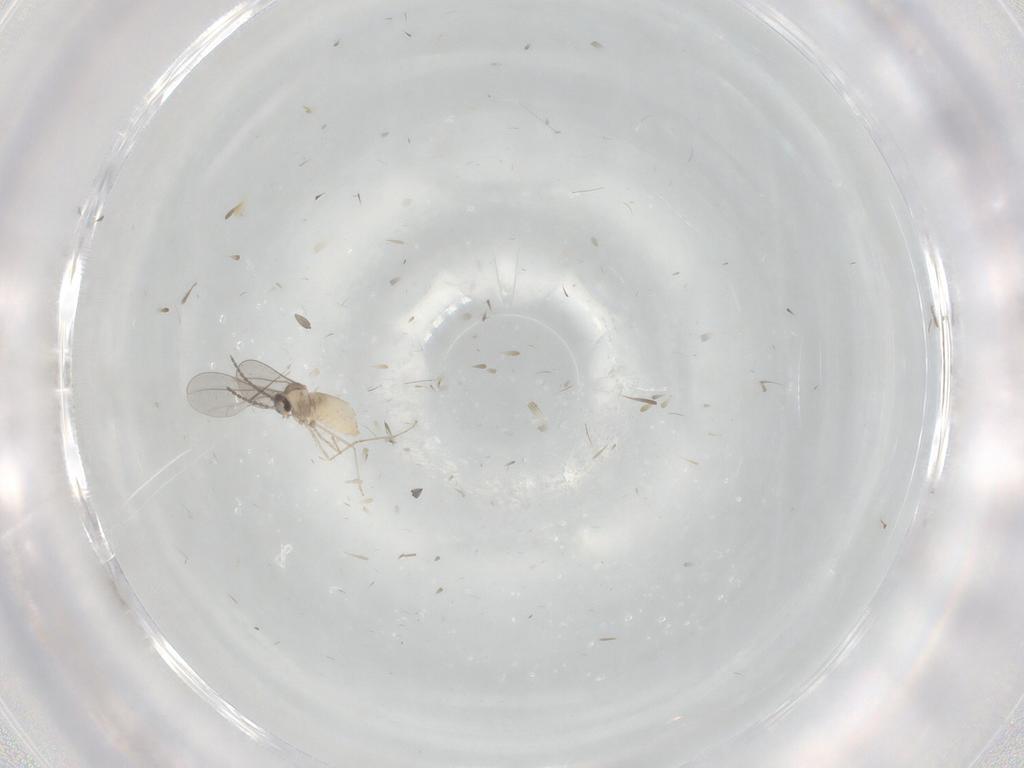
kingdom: Animalia
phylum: Arthropoda
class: Insecta
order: Diptera
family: Cecidomyiidae
